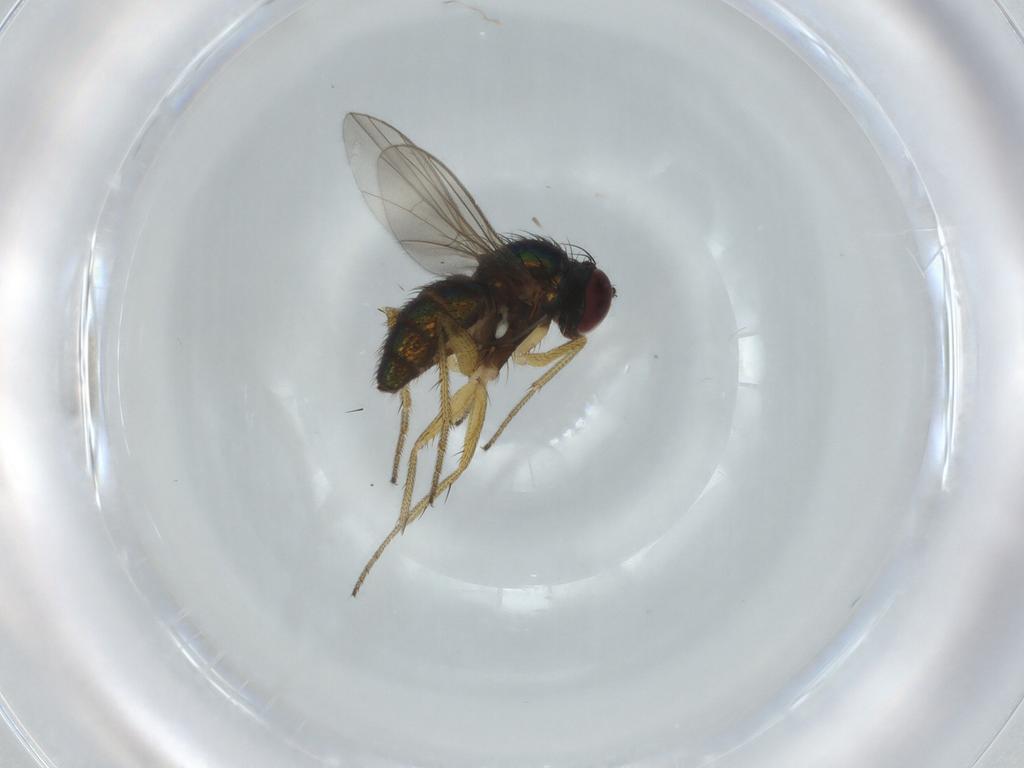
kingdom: Animalia
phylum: Arthropoda
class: Insecta
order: Diptera
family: Dolichopodidae
